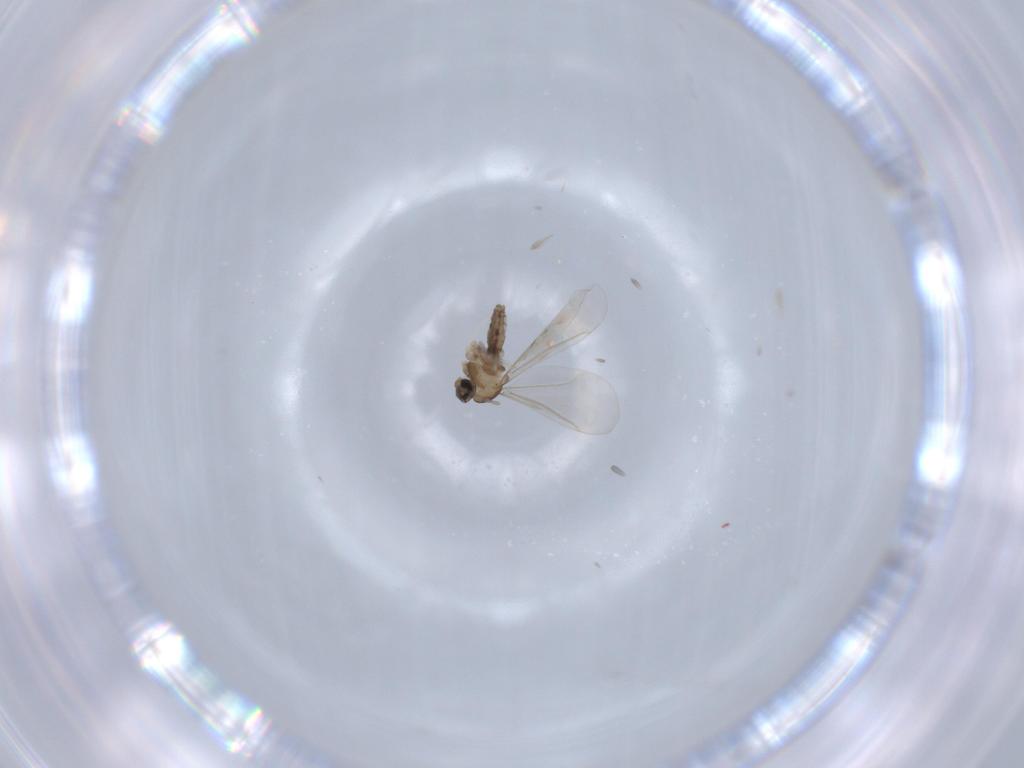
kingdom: Animalia
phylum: Arthropoda
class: Insecta
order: Diptera
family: Cecidomyiidae
